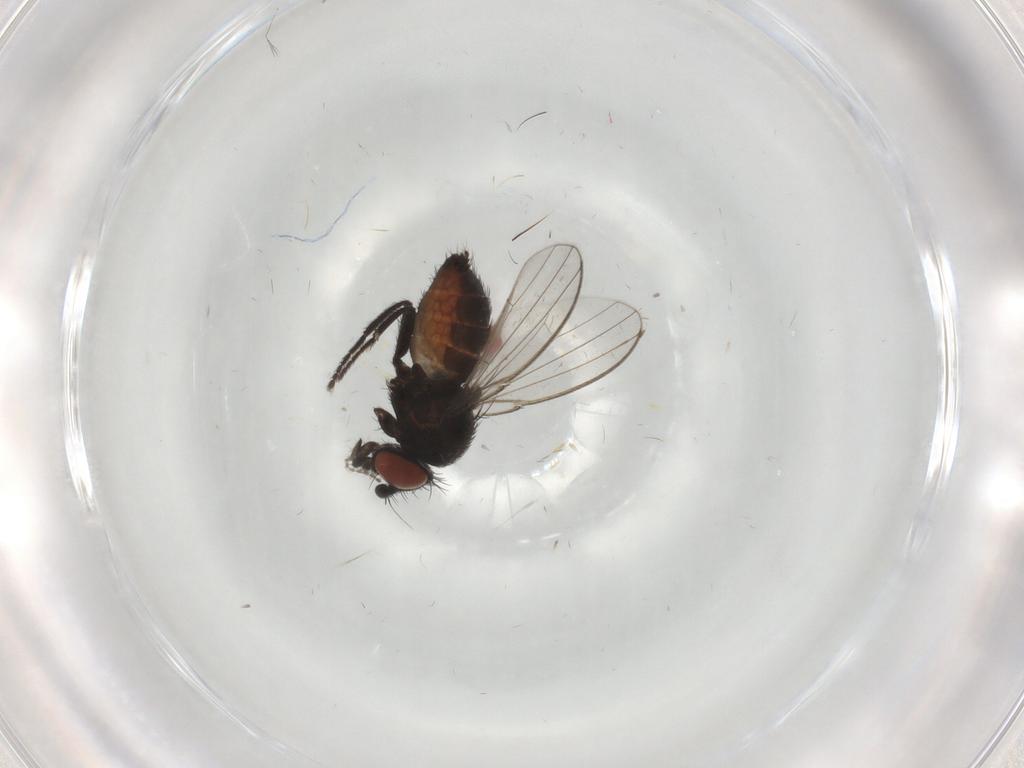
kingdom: Animalia
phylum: Arthropoda
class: Insecta
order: Diptera
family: Milichiidae
